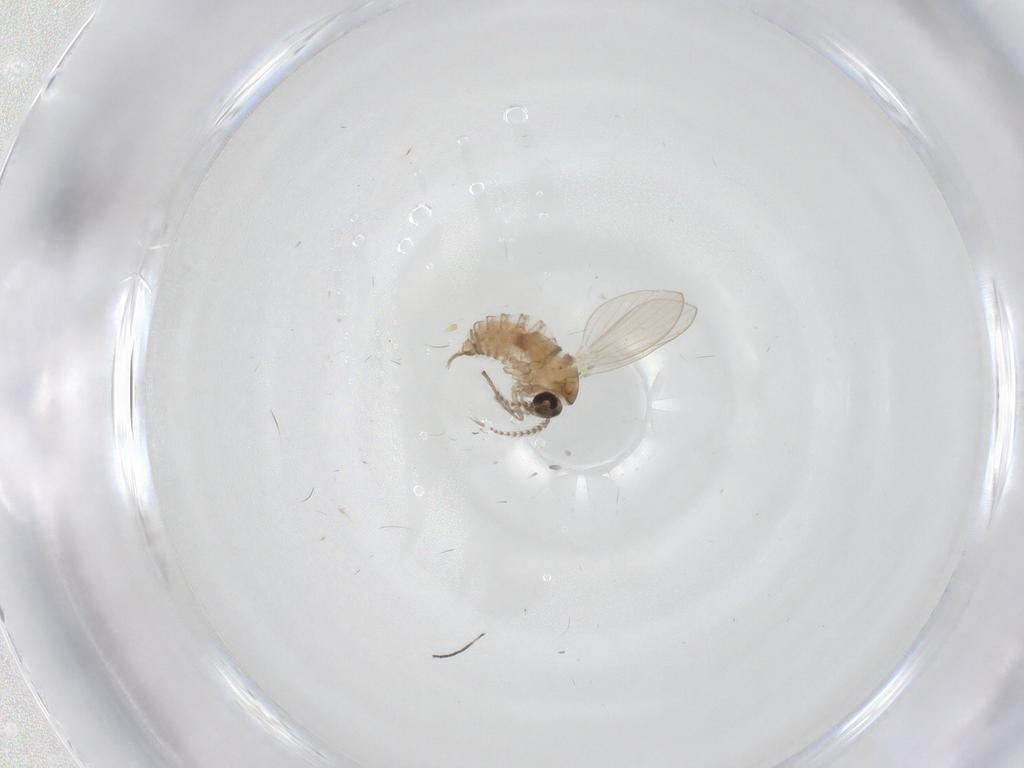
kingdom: Animalia
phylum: Arthropoda
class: Insecta
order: Diptera
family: Psychodidae
